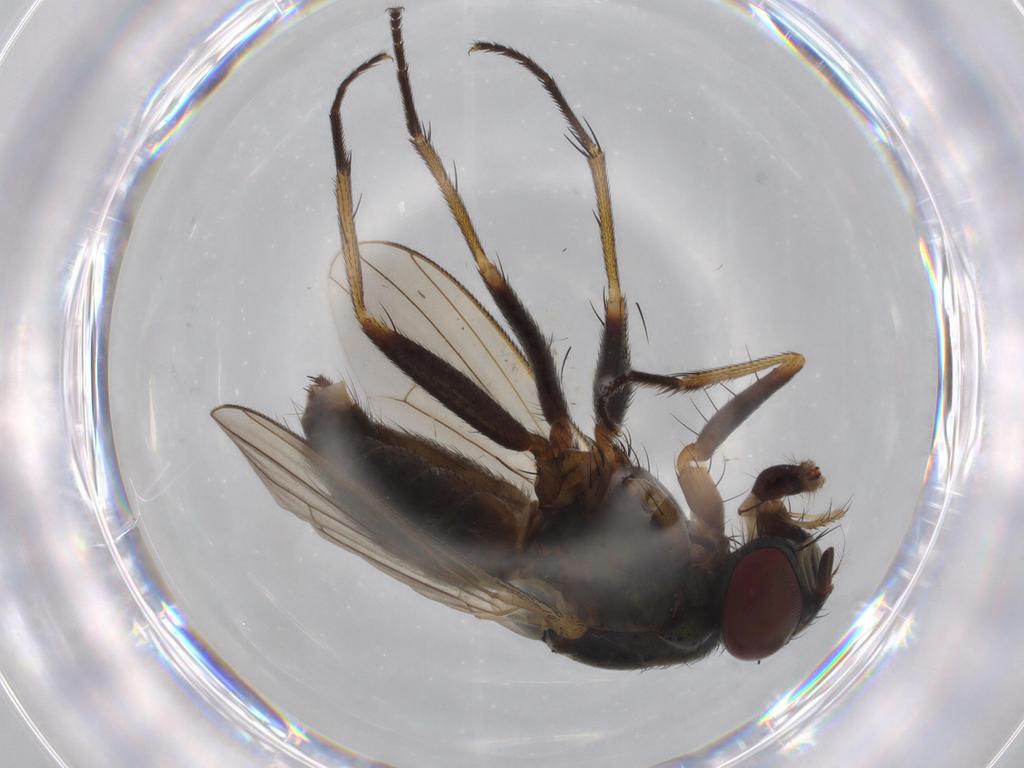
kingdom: Animalia
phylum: Arthropoda
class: Insecta
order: Diptera
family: Muscidae
